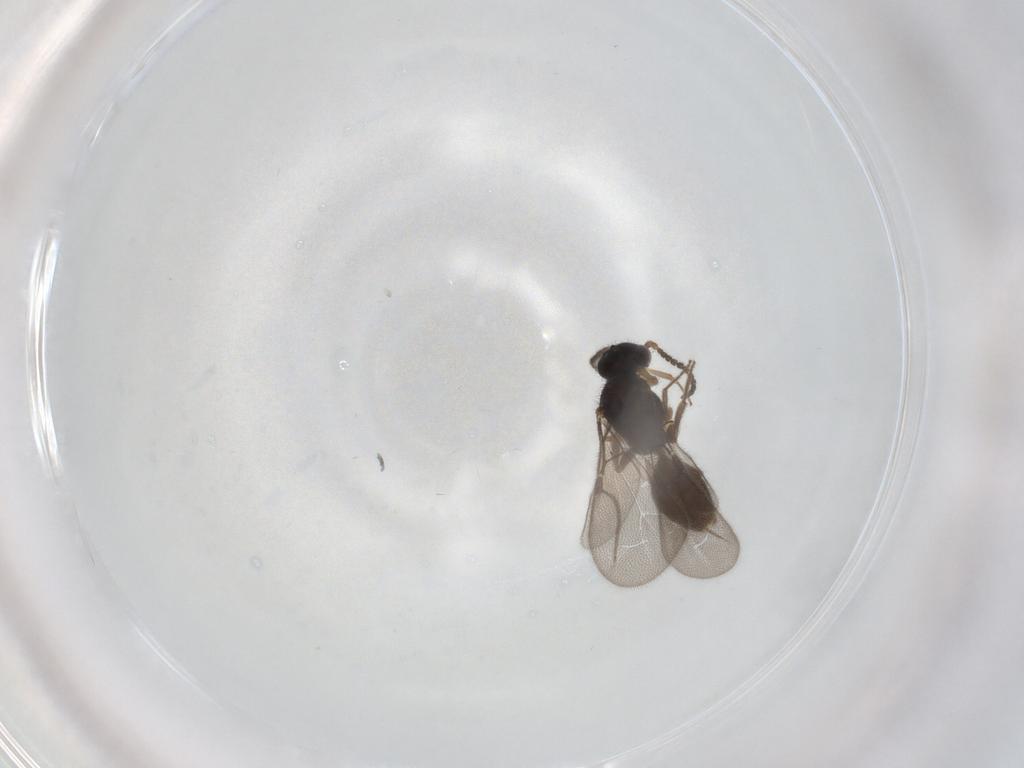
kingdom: Animalia
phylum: Arthropoda
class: Insecta
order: Hymenoptera
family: Bethylidae
